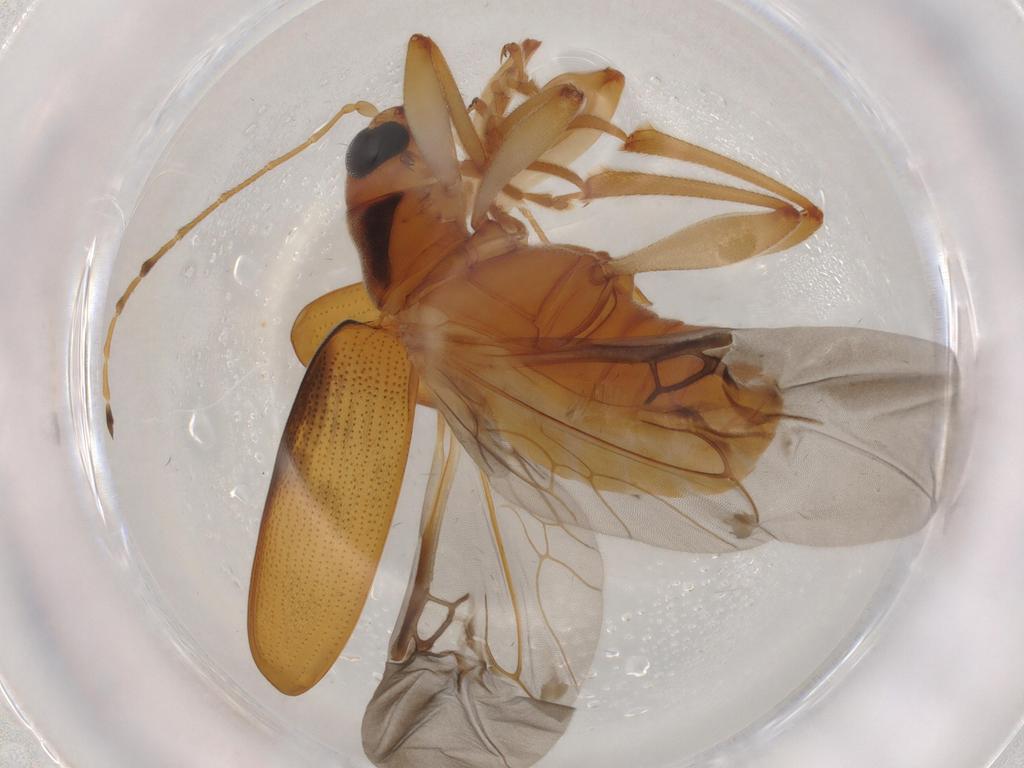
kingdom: Animalia
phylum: Arthropoda
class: Insecta
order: Coleoptera
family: Chrysomelidae
